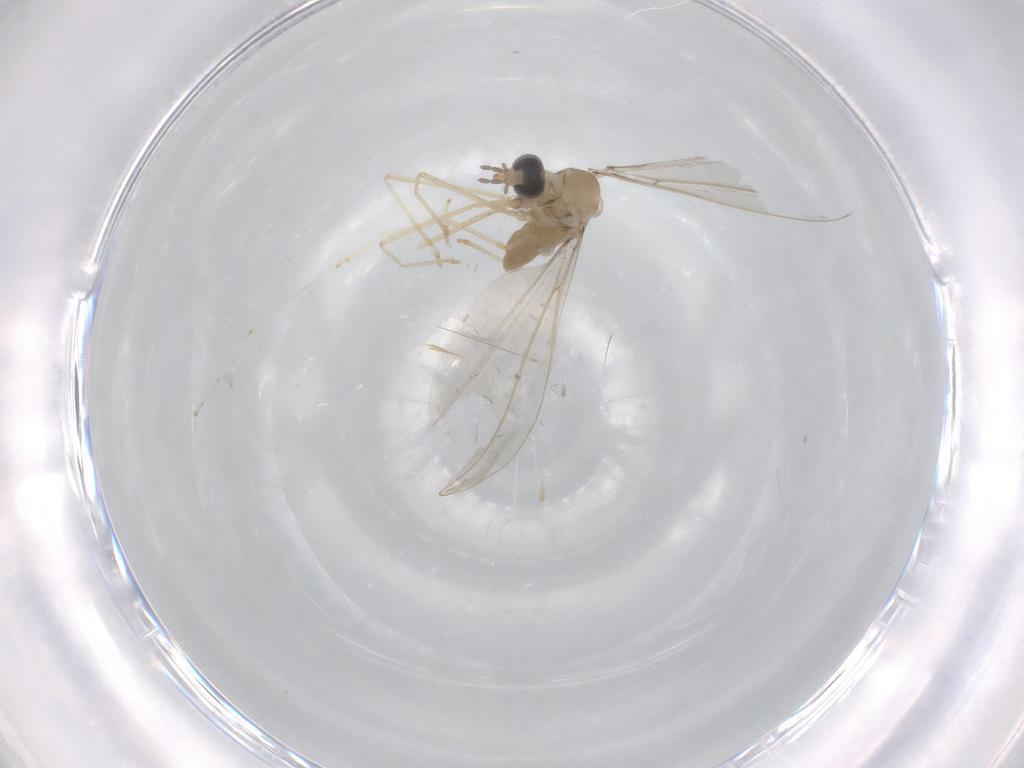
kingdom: Animalia
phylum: Arthropoda
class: Insecta
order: Diptera
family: Cecidomyiidae
